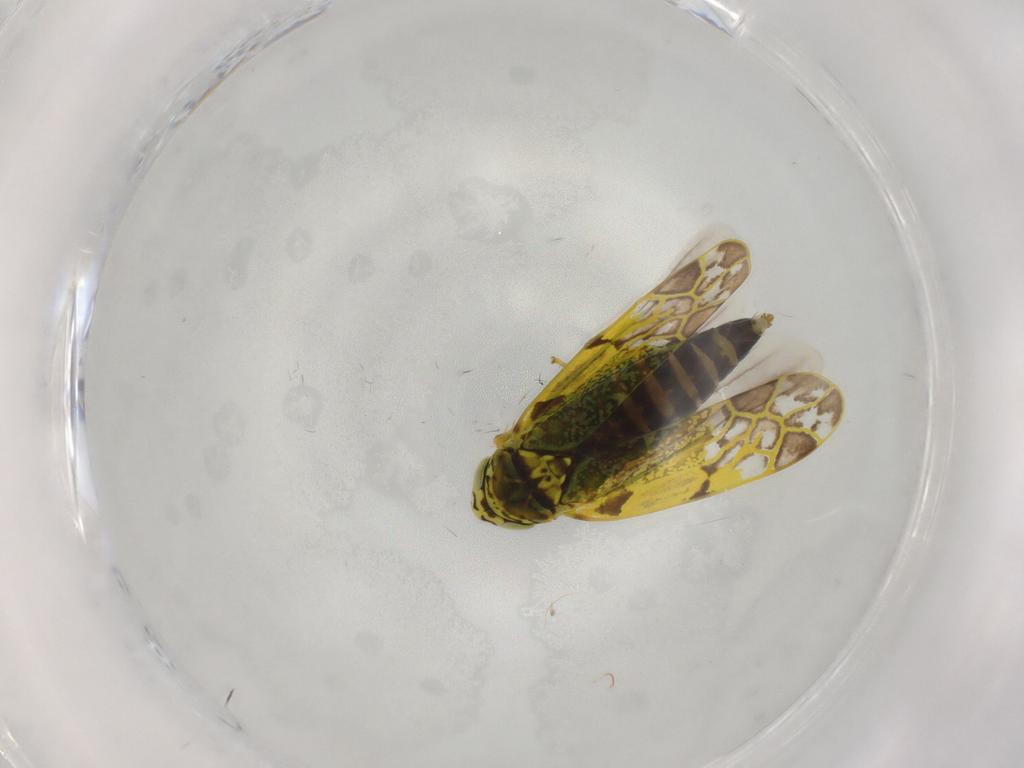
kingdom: Animalia
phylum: Arthropoda
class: Insecta
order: Hemiptera
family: Cicadellidae
